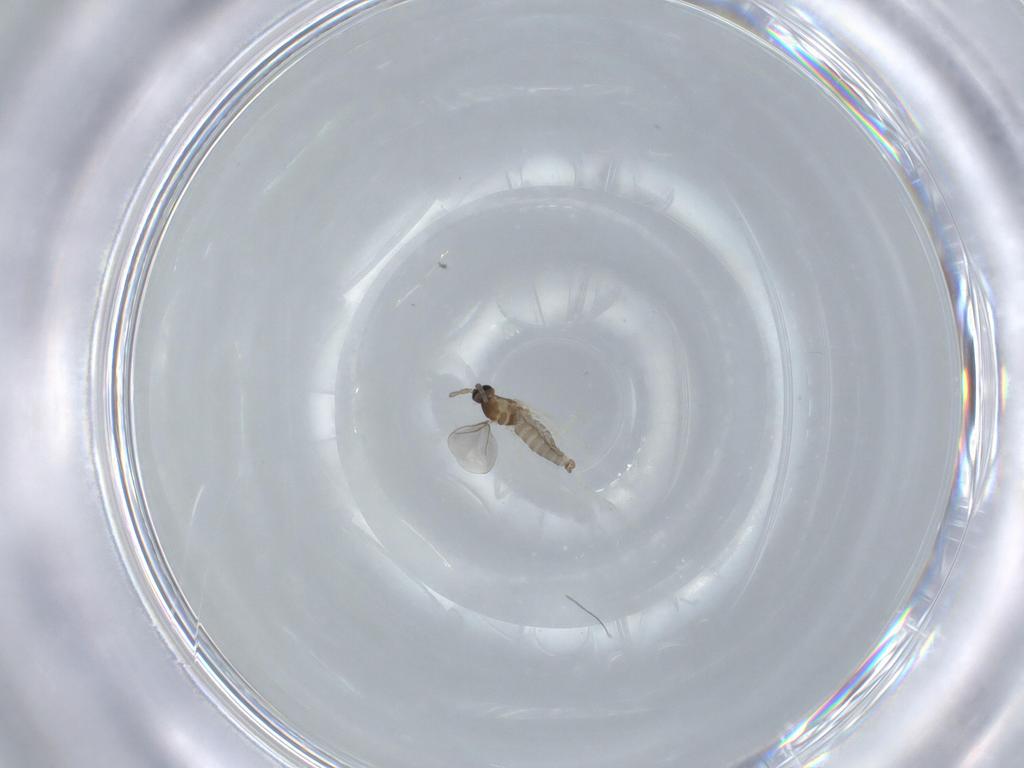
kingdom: Animalia
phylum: Arthropoda
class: Insecta
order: Diptera
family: Cecidomyiidae
